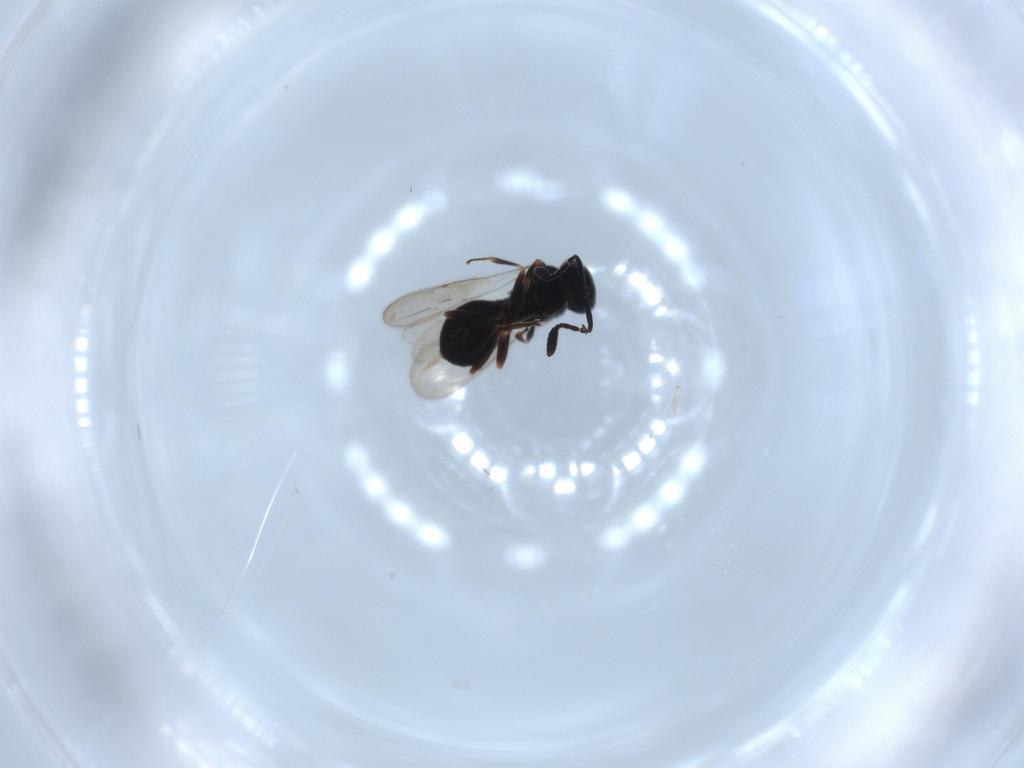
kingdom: Animalia
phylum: Arthropoda
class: Insecta
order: Hymenoptera
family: Scelionidae
